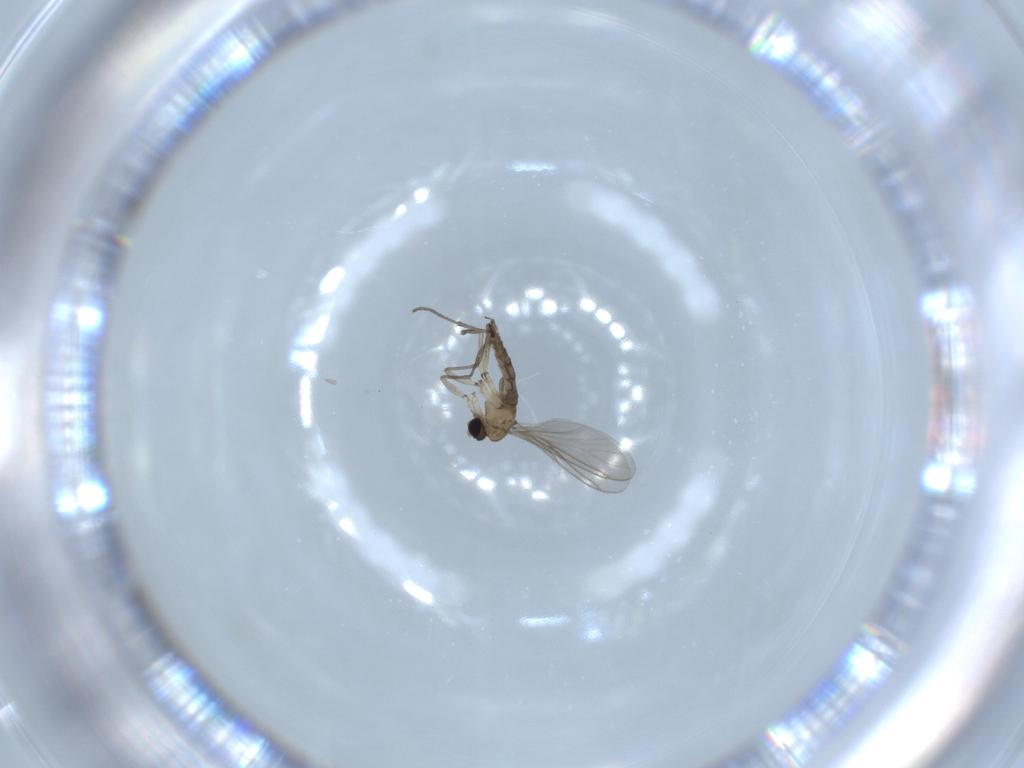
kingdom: Animalia
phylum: Arthropoda
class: Insecta
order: Diptera
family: Sciaridae
